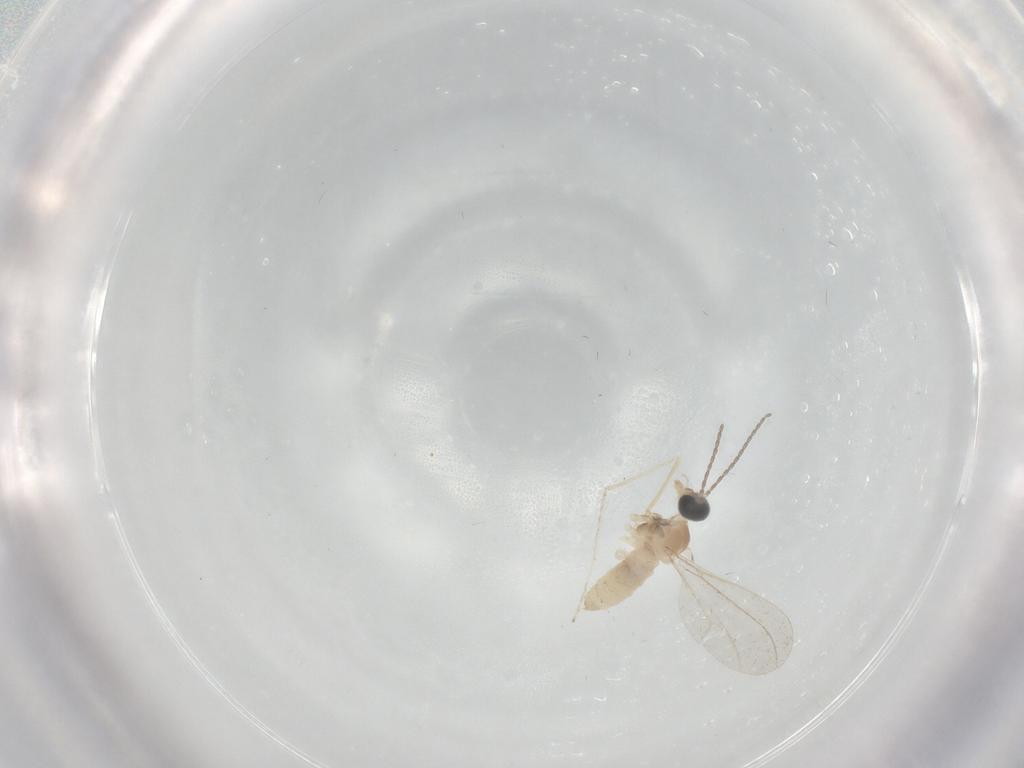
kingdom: Animalia
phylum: Arthropoda
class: Insecta
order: Diptera
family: Cecidomyiidae
